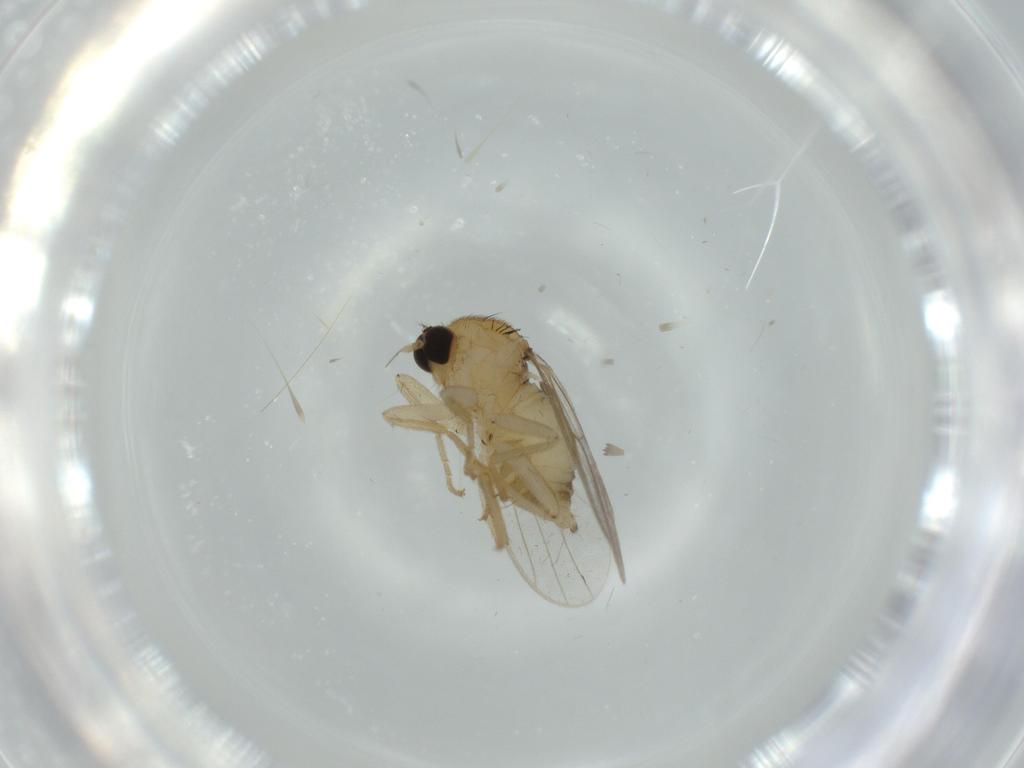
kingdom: Animalia
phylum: Arthropoda
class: Insecta
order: Diptera
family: Hybotidae
